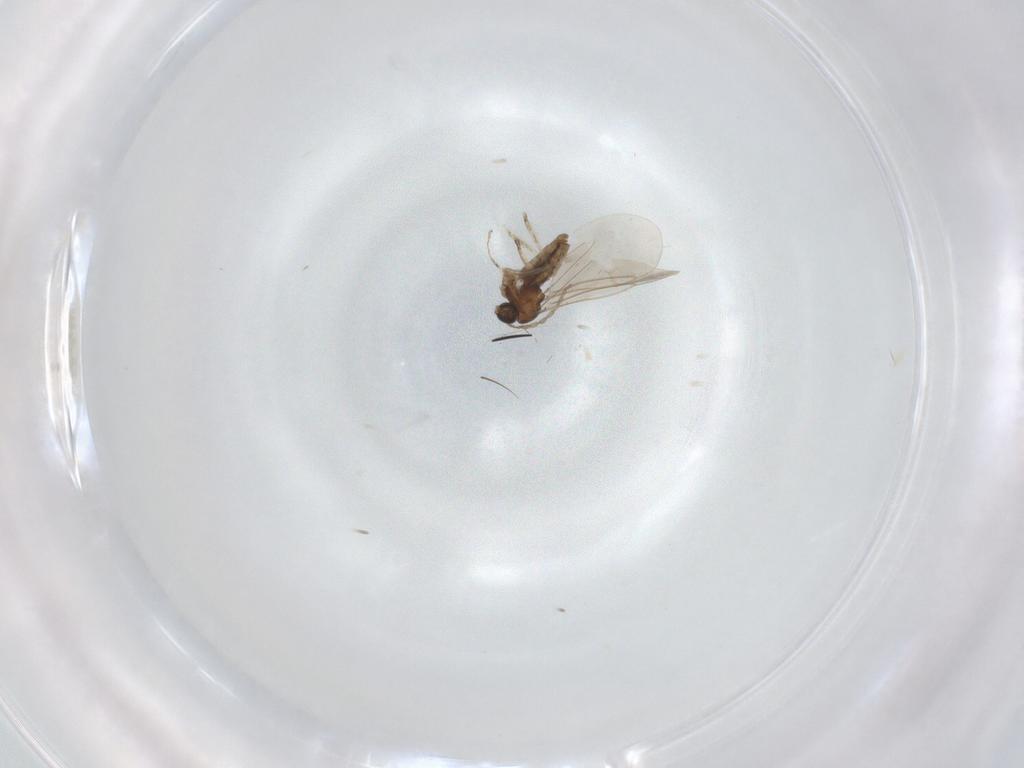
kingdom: Animalia
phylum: Arthropoda
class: Insecta
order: Diptera
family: Cecidomyiidae
